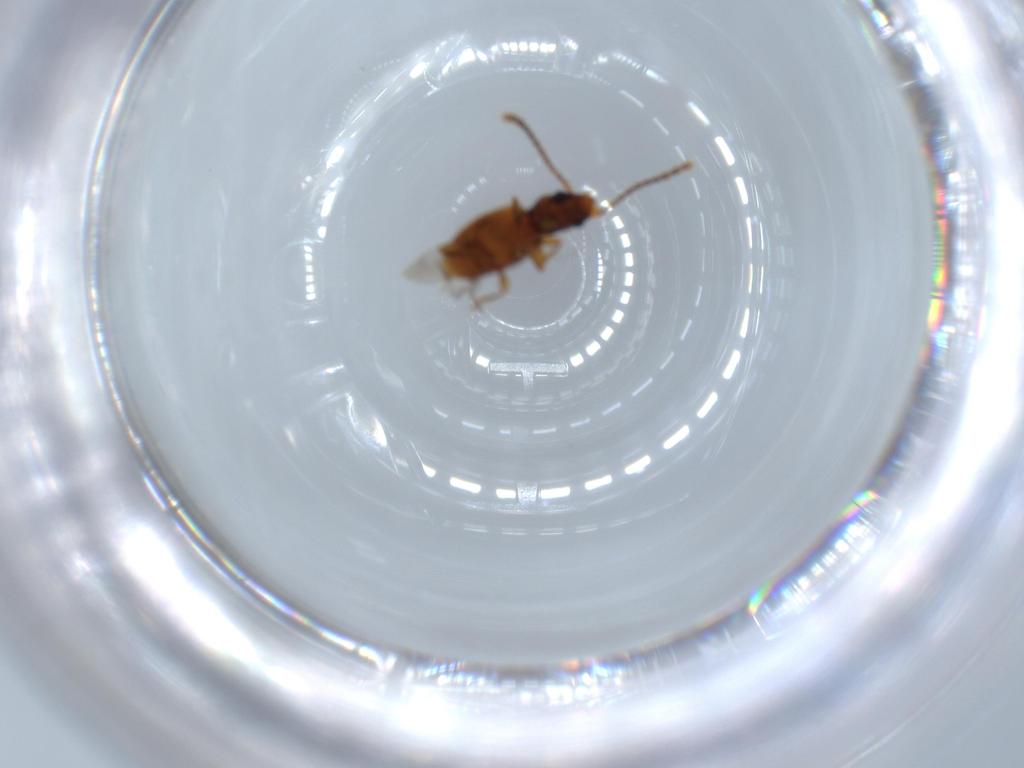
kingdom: Animalia
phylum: Arthropoda
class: Insecta
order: Coleoptera
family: Laemophloeidae
